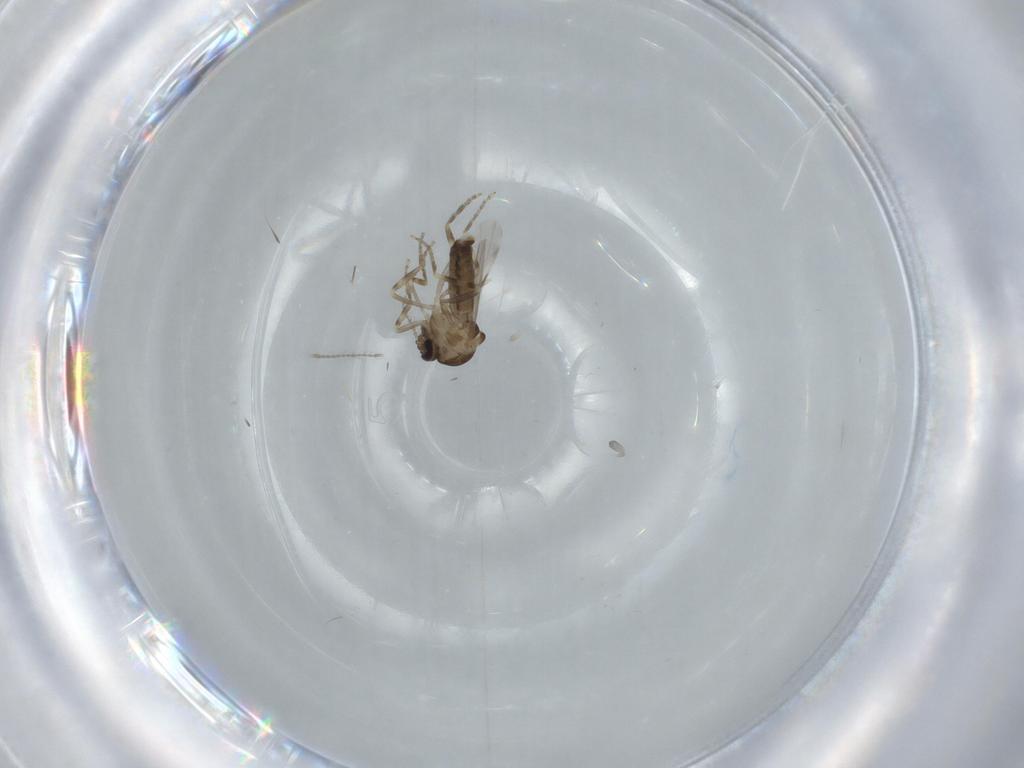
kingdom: Animalia
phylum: Arthropoda
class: Insecta
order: Diptera
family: Ceratopogonidae
